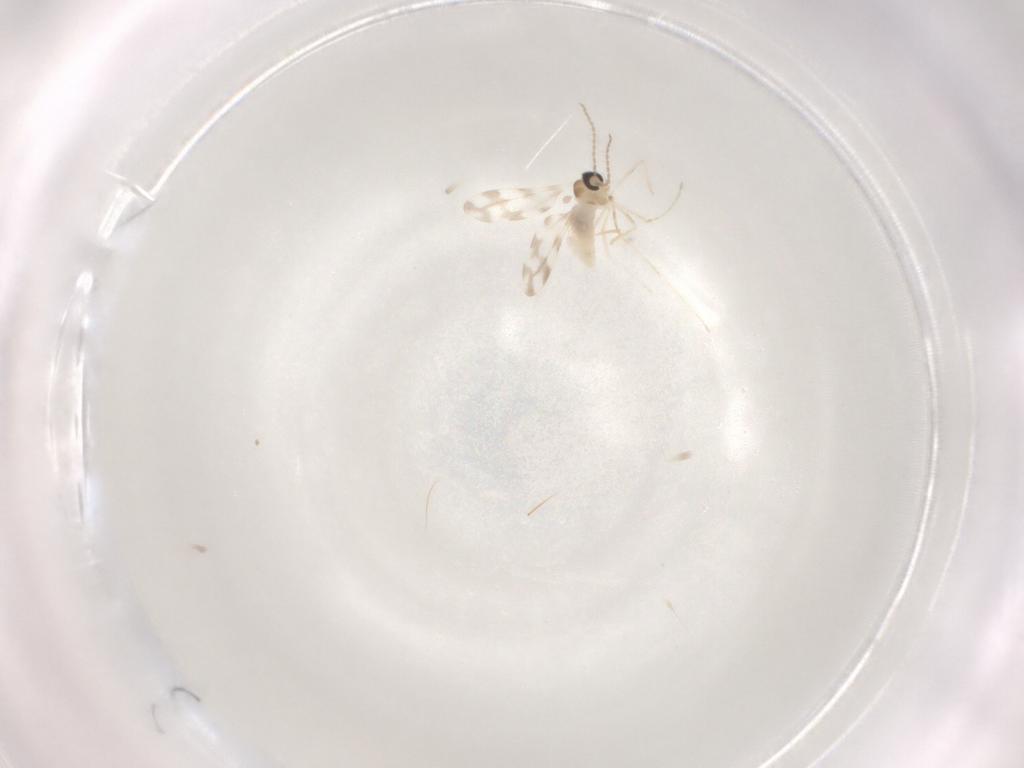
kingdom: Animalia
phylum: Arthropoda
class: Insecta
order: Diptera
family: Cecidomyiidae
